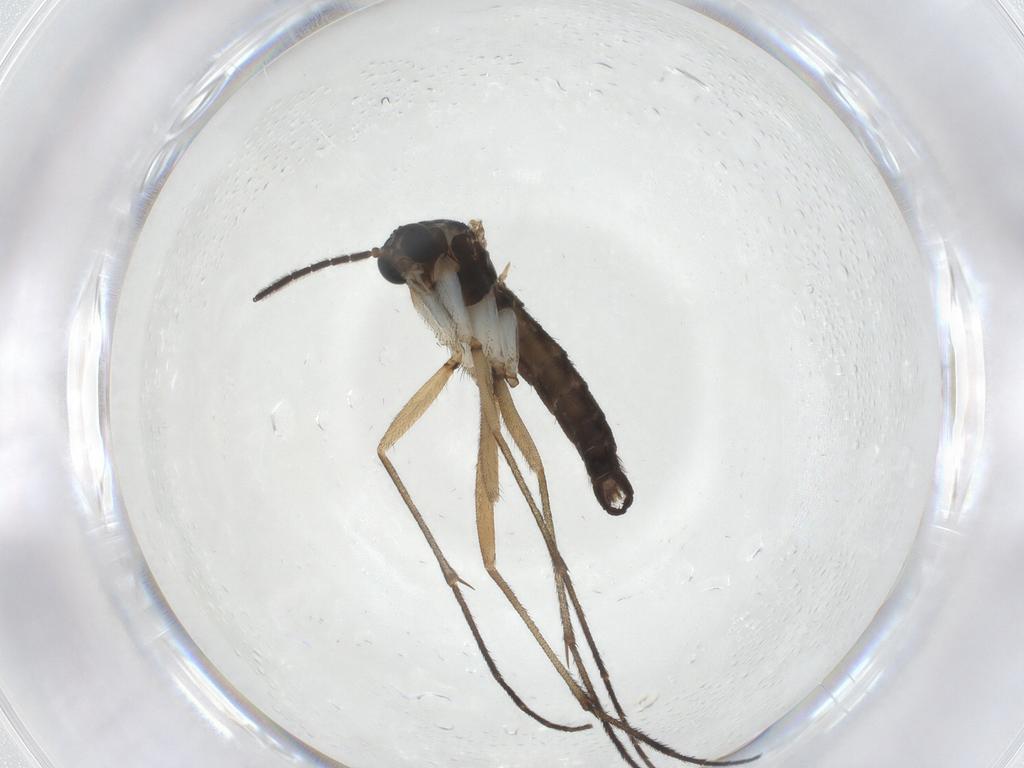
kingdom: Animalia
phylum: Arthropoda
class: Insecta
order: Diptera
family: Sciaridae
